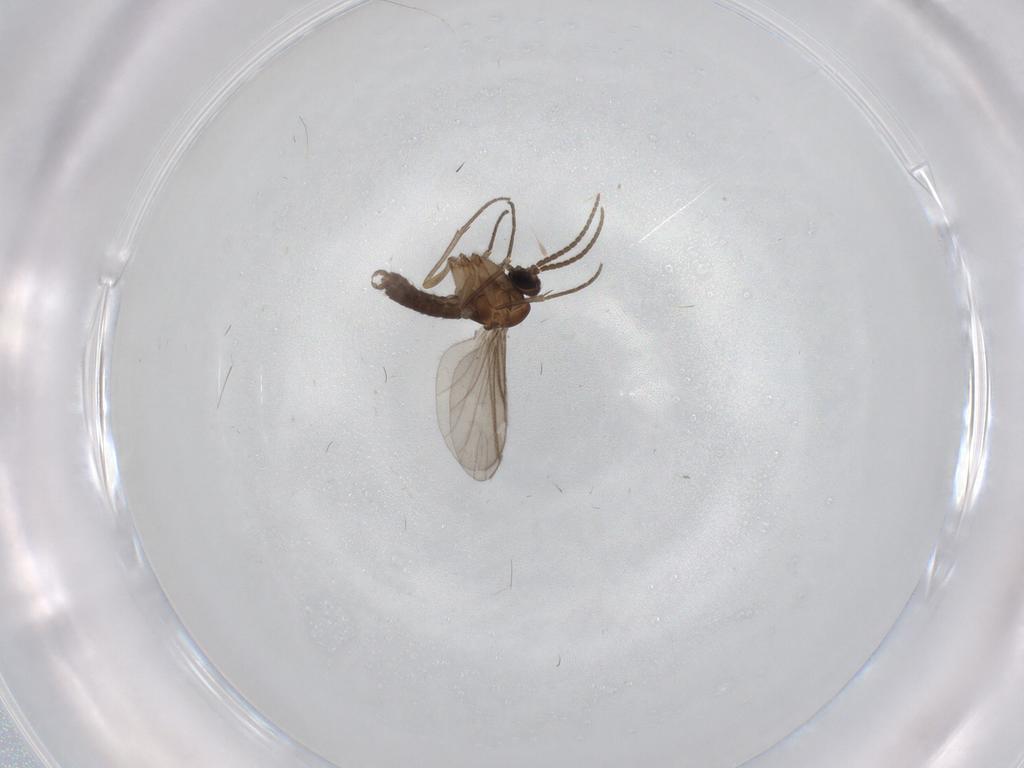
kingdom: Animalia
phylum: Arthropoda
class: Insecta
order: Diptera
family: Sciaridae
